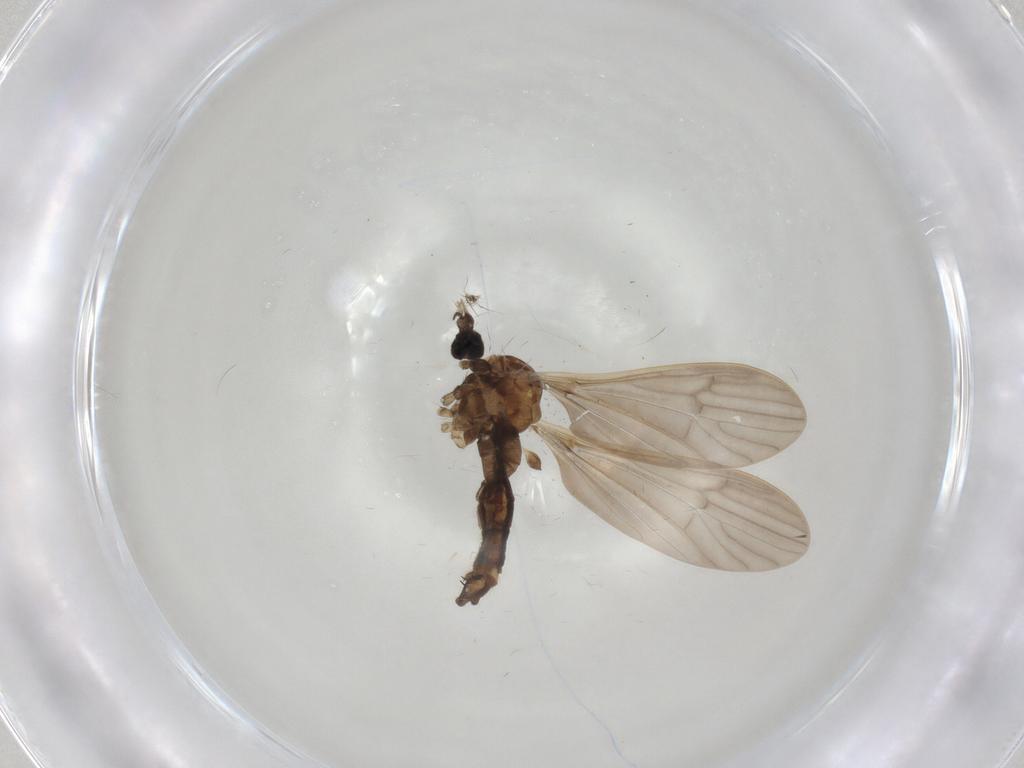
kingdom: Animalia
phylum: Arthropoda
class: Insecta
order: Diptera
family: Limoniidae
